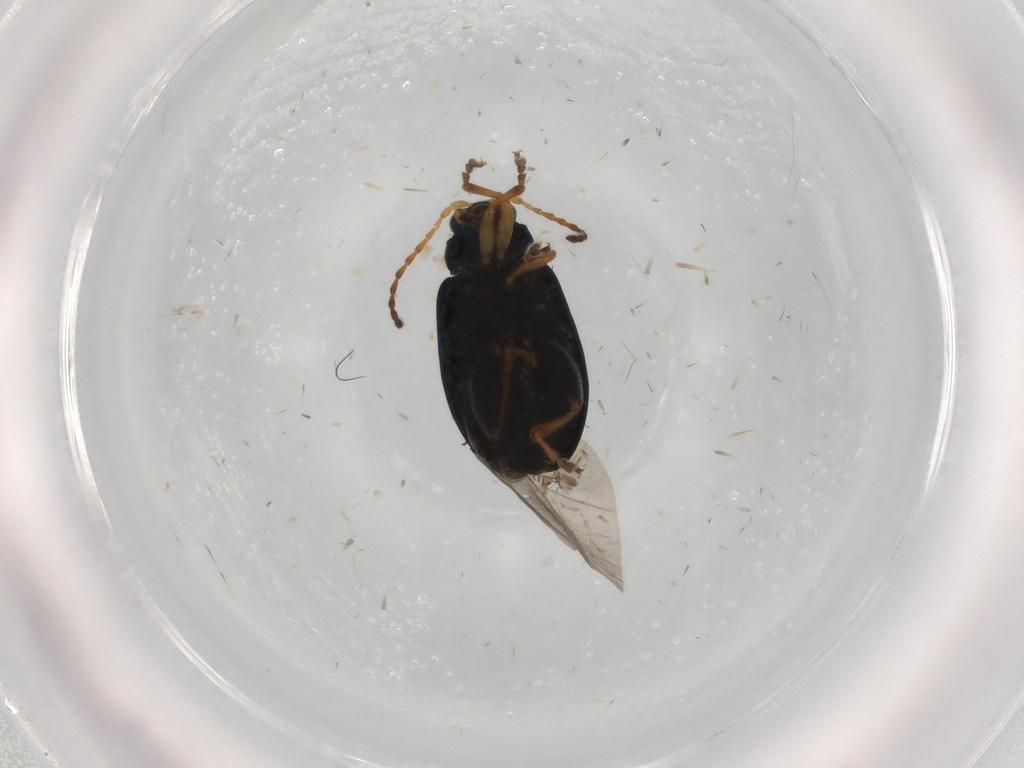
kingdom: Animalia
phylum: Arthropoda
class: Insecta
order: Coleoptera
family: Chrysomelidae
